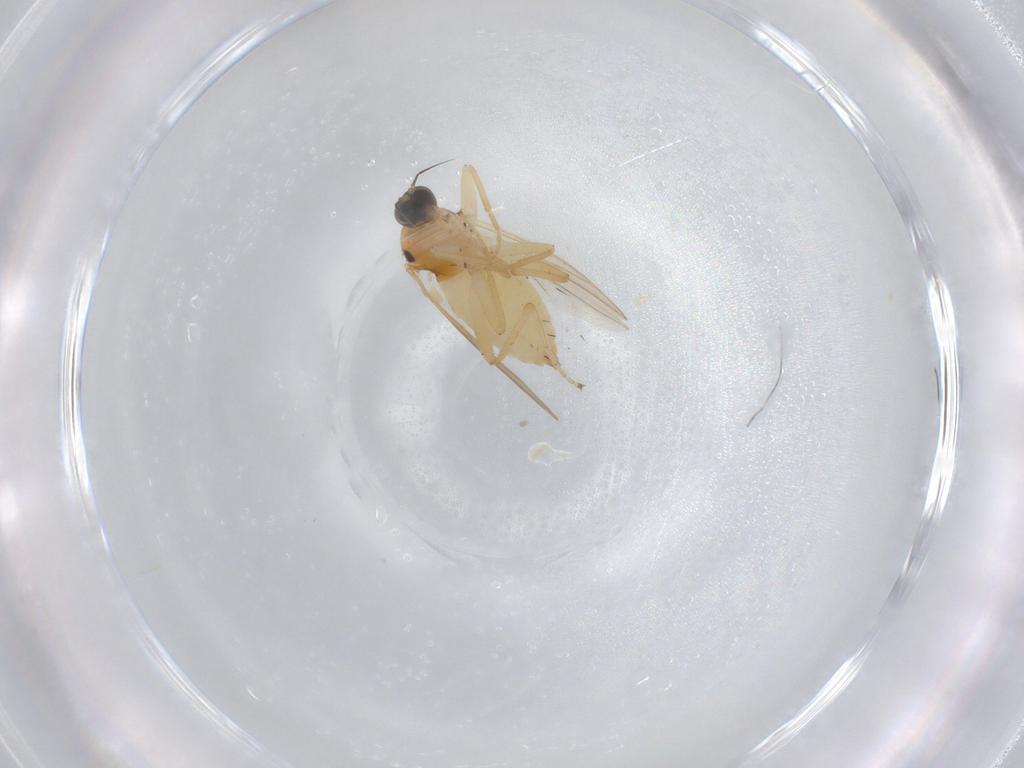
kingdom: Animalia
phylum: Arthropoda
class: Insecta
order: Diptera
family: Hybotidae
